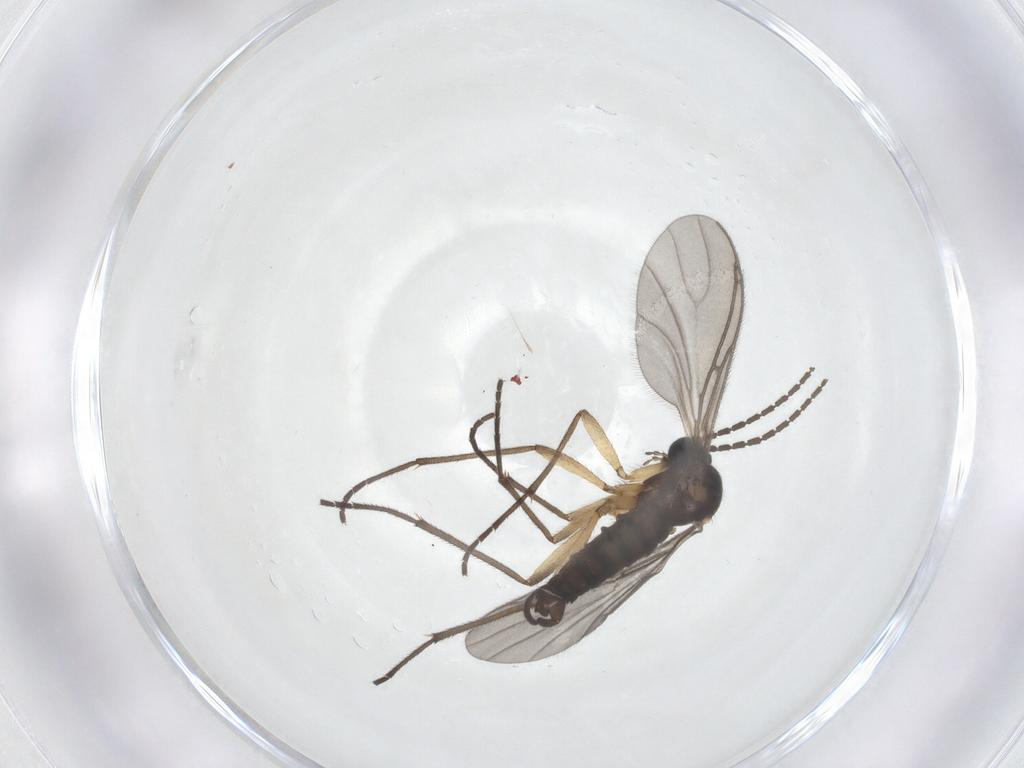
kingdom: Animalia
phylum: Arthropoda
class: Insecta
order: Diptera
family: Sciaridae
